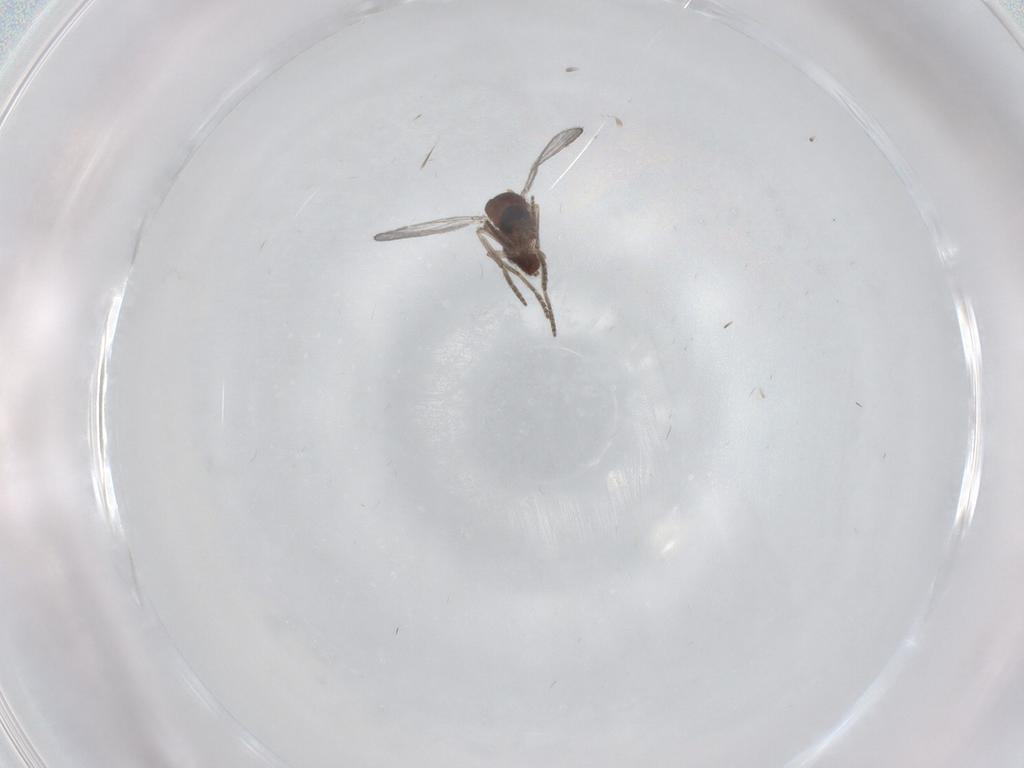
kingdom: Animalia
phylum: Arthropoda
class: Insecta
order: Diptera
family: Ceratopogonidae
